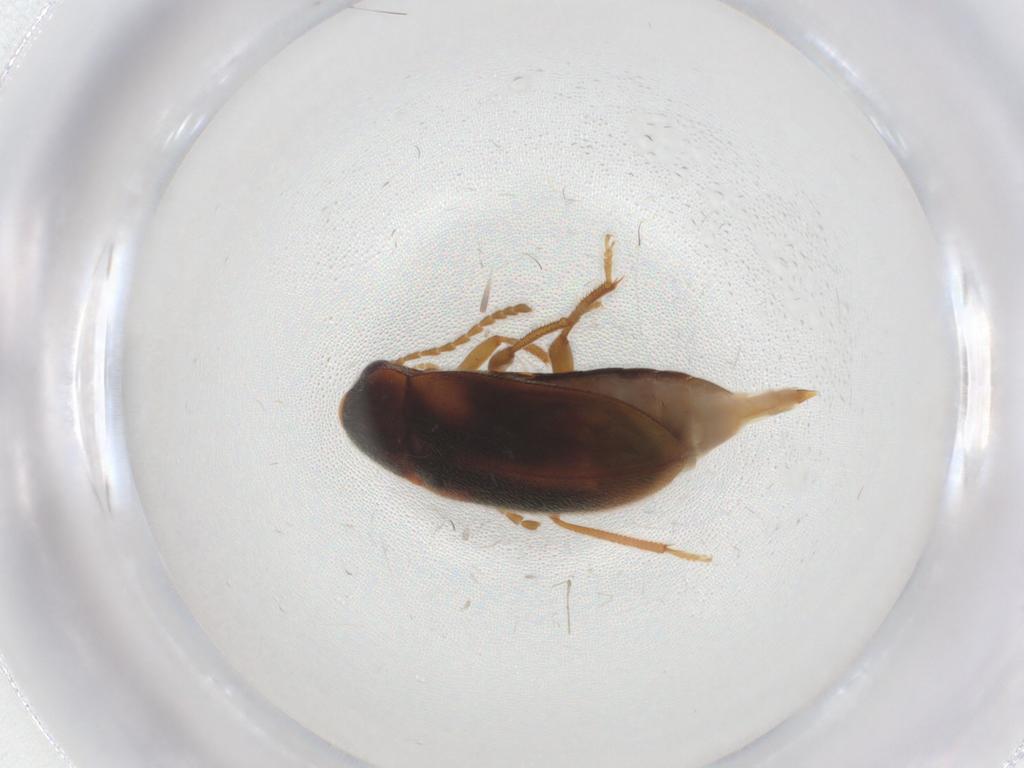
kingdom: Animalia
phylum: Arthropoda
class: Insecta
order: Coleoptera
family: Ptilodactylidae
